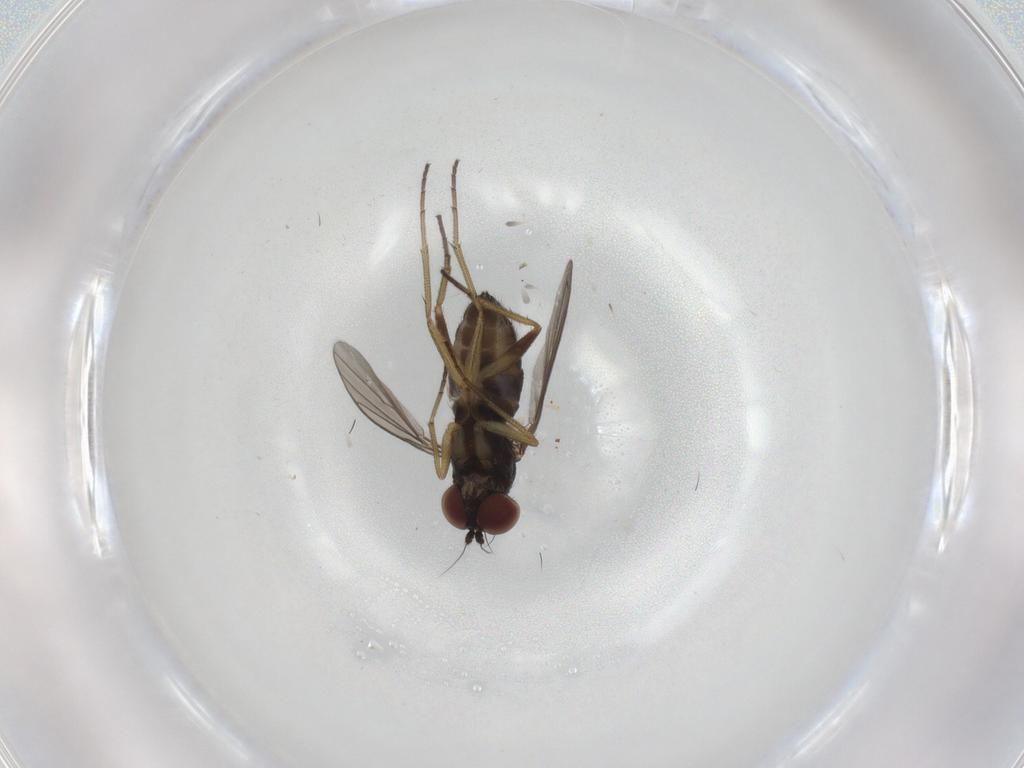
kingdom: Animalia
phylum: Arthropoda
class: Insecta
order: Diptera
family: Dolichopodidae
